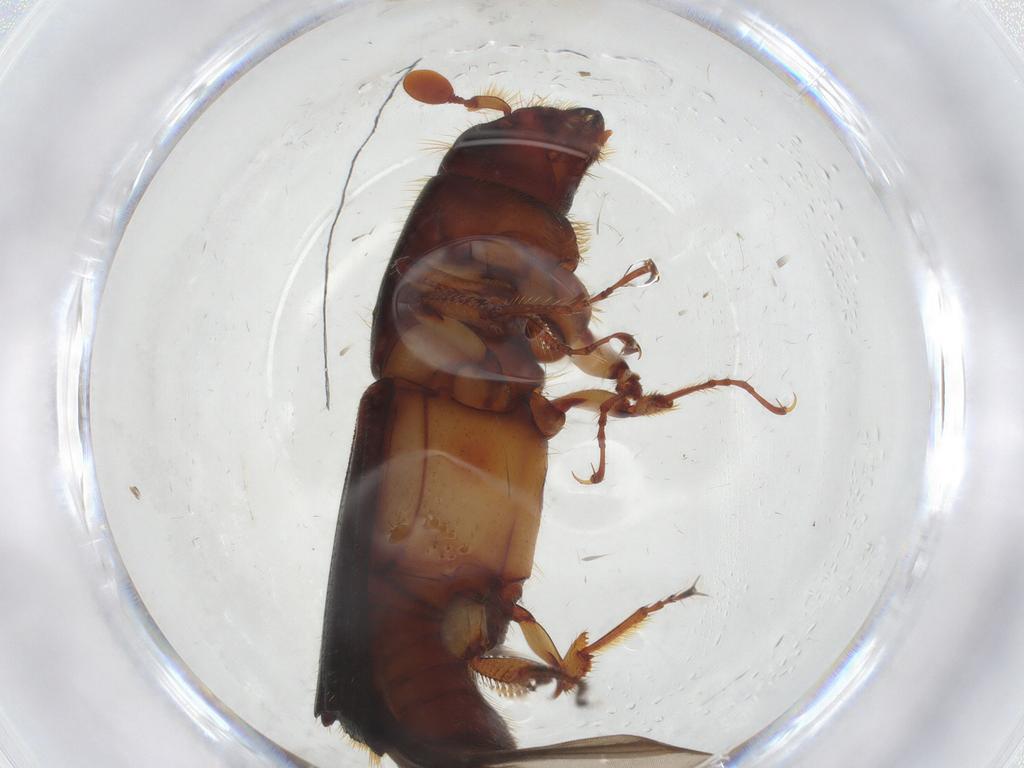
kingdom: Animalia
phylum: Arthropoda
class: Insecta
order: Coleoptera
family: Curculionidae
